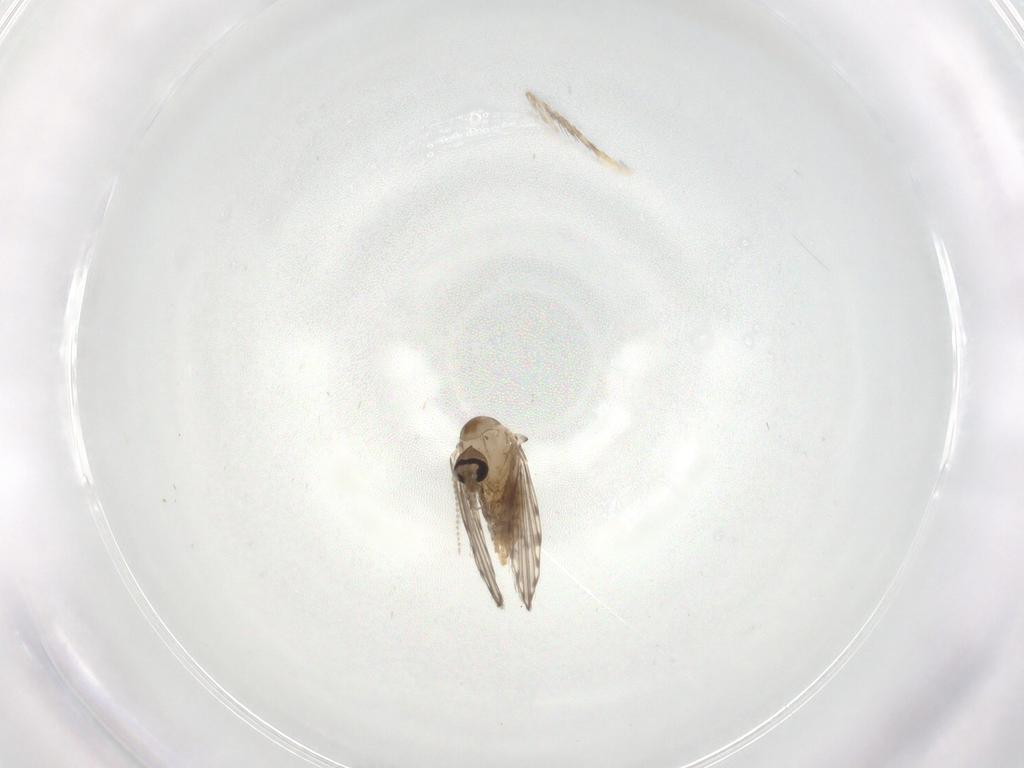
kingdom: Animalia
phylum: Arthropoda
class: Insecta
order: Diptera
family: Psychodidae
